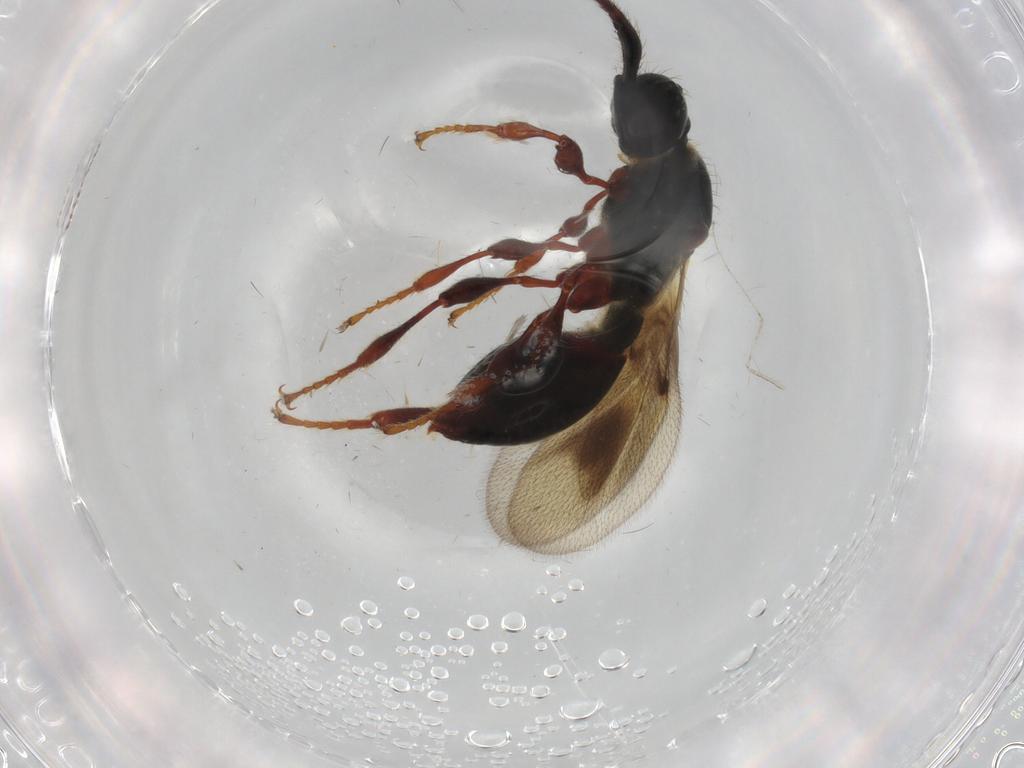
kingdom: Animalia
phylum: Arthropoda
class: Insecta
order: Hymenoptera
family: Diapriidae
